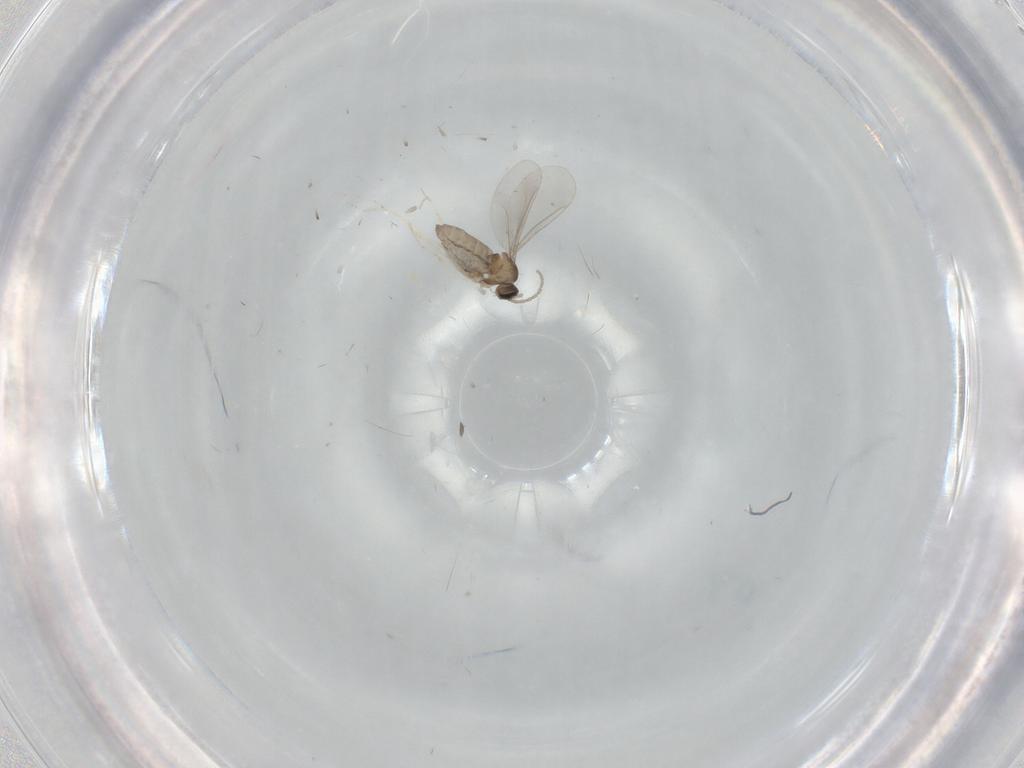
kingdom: Animalia
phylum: Arthropoda
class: Insecta
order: Diptera
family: Cecidomyiidae
